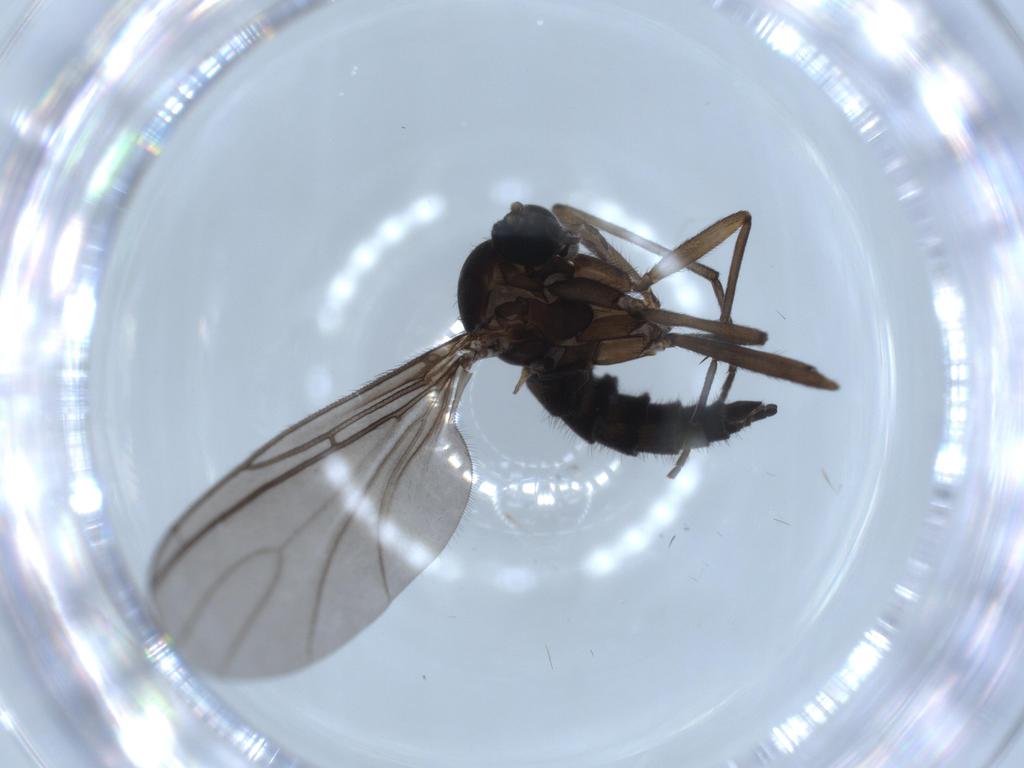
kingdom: Animalia
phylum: Arthropoda
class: Insecta
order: Diptera
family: Sciaridae
